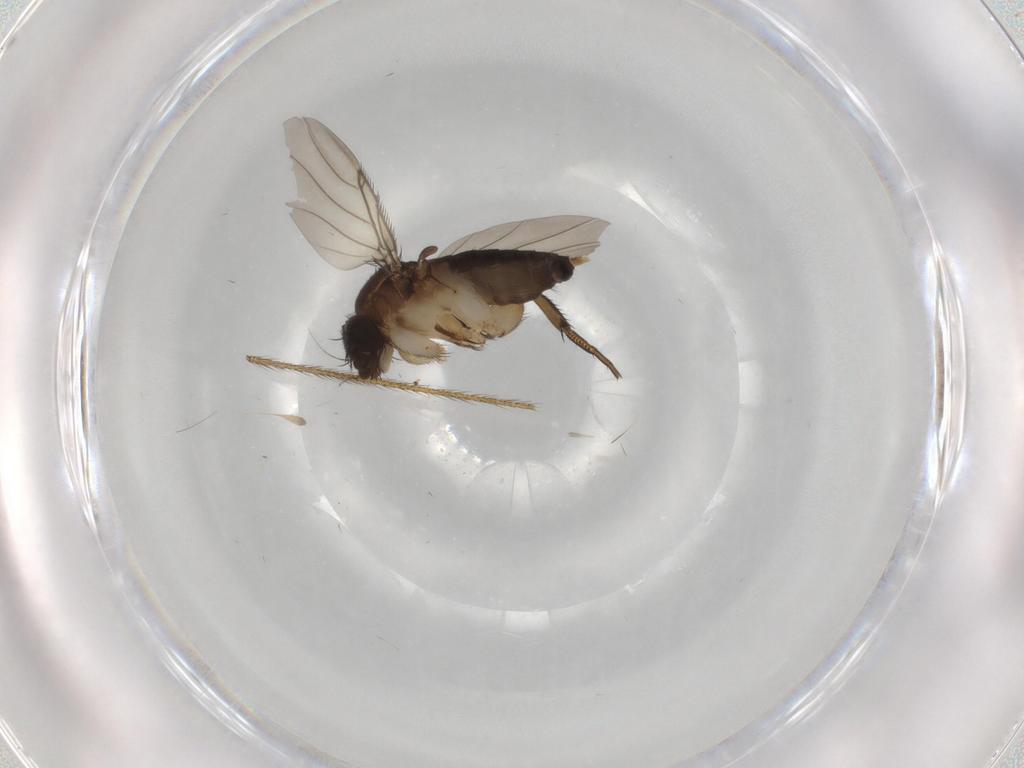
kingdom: Animalia
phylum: Arthropoda
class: Insecta
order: Diptera
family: Phoridae
